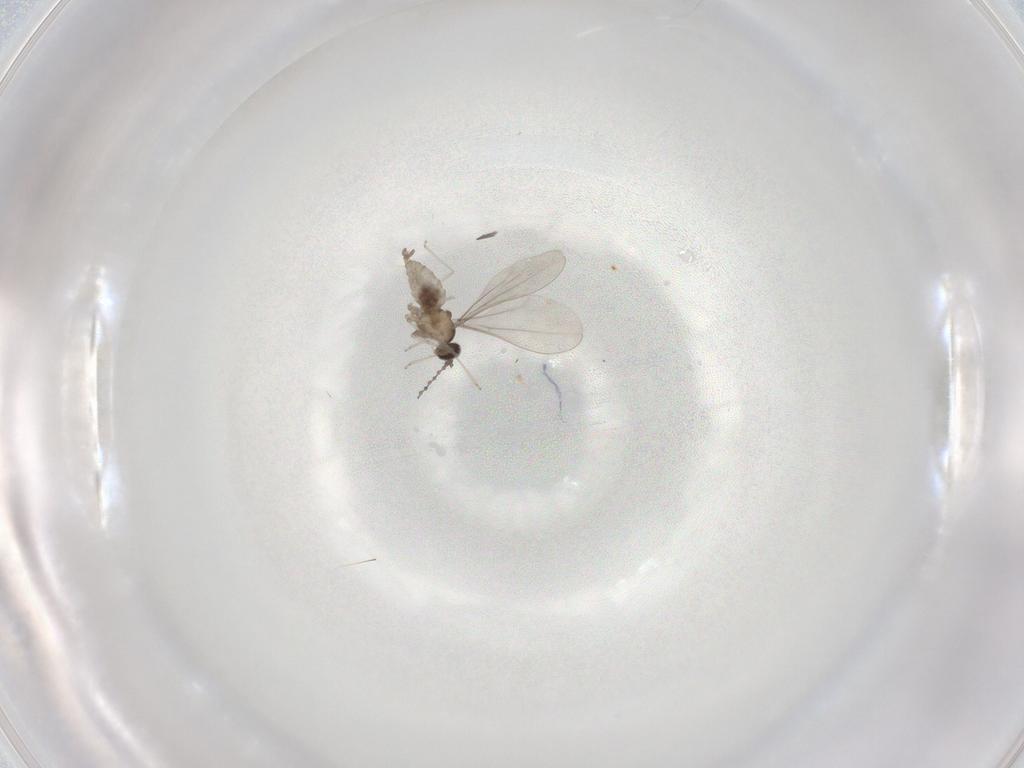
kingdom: Animalia
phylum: Arthropoda
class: Insecta
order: Diptera
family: Cecidomyiidae
